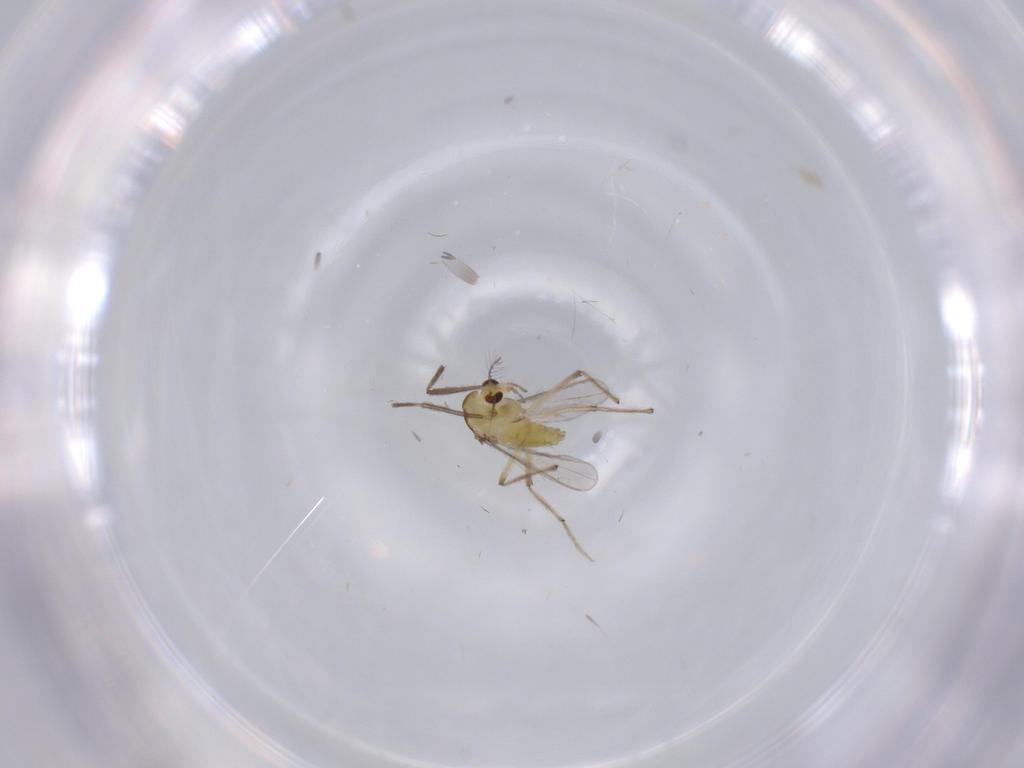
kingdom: Animalia
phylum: Arthropoda
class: Insecta
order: Diptera
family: Chironomidae
